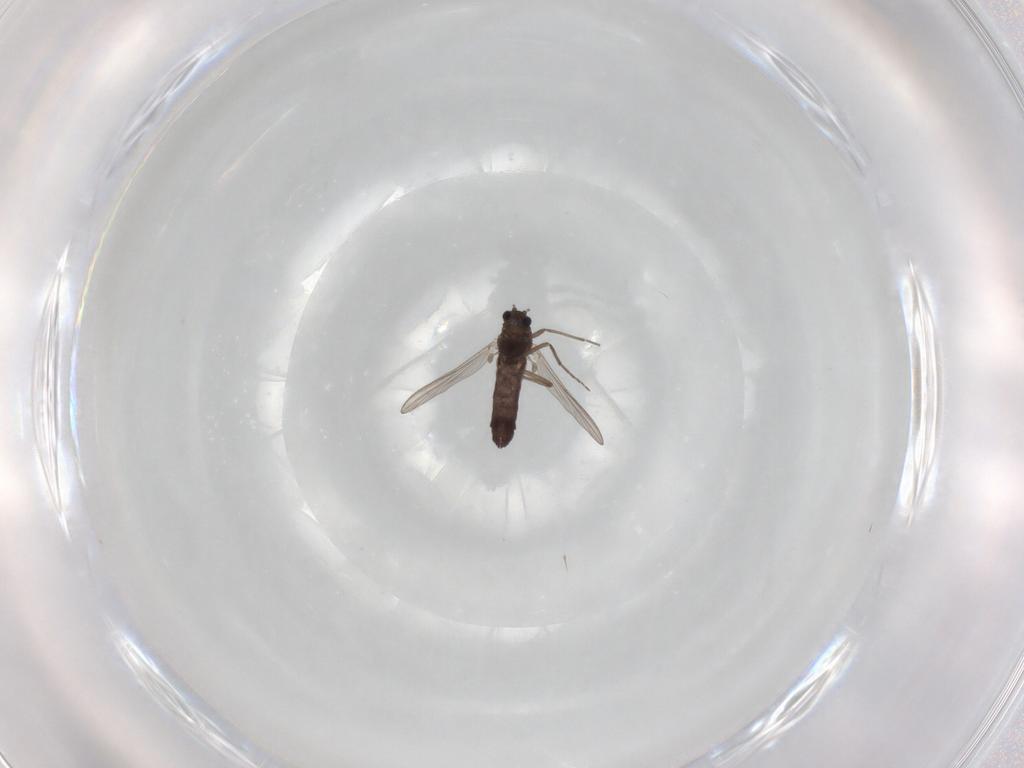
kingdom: Animalia
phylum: Arthropoda
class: Insecta
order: Diptera
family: Chironomidae
